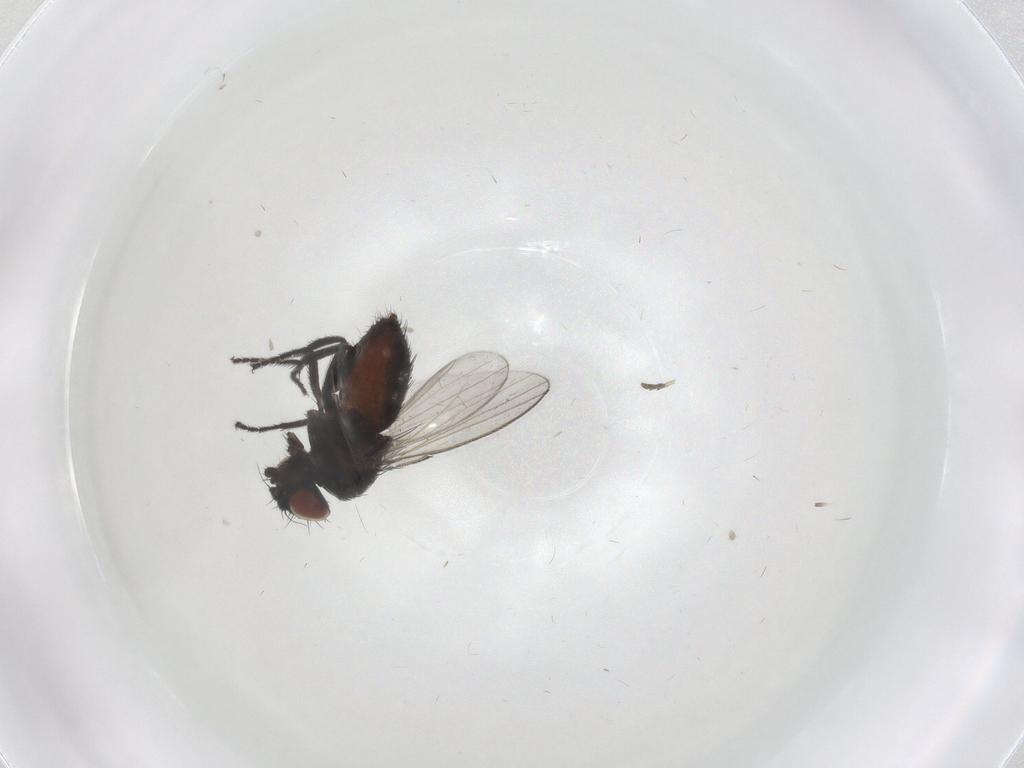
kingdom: Animalia
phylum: Arthropoda
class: Insecta
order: Diptera
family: Milichiidae
